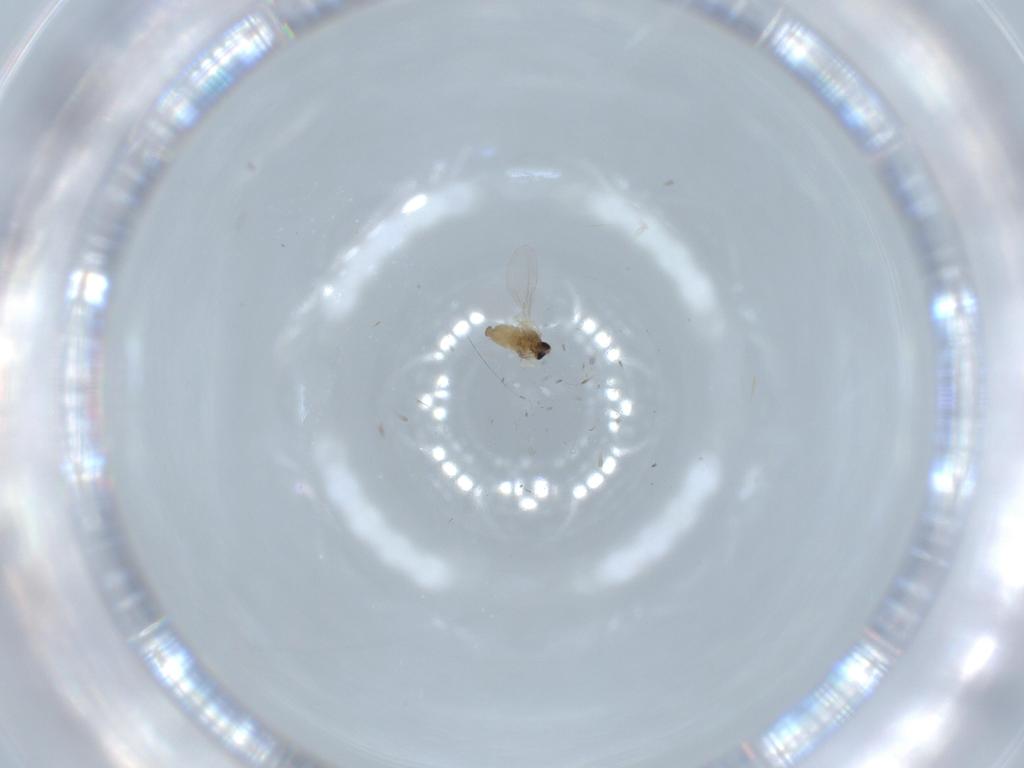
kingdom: Animalia
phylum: Arthropoda
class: Insecta
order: Diptera
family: Cecidomyiidae
